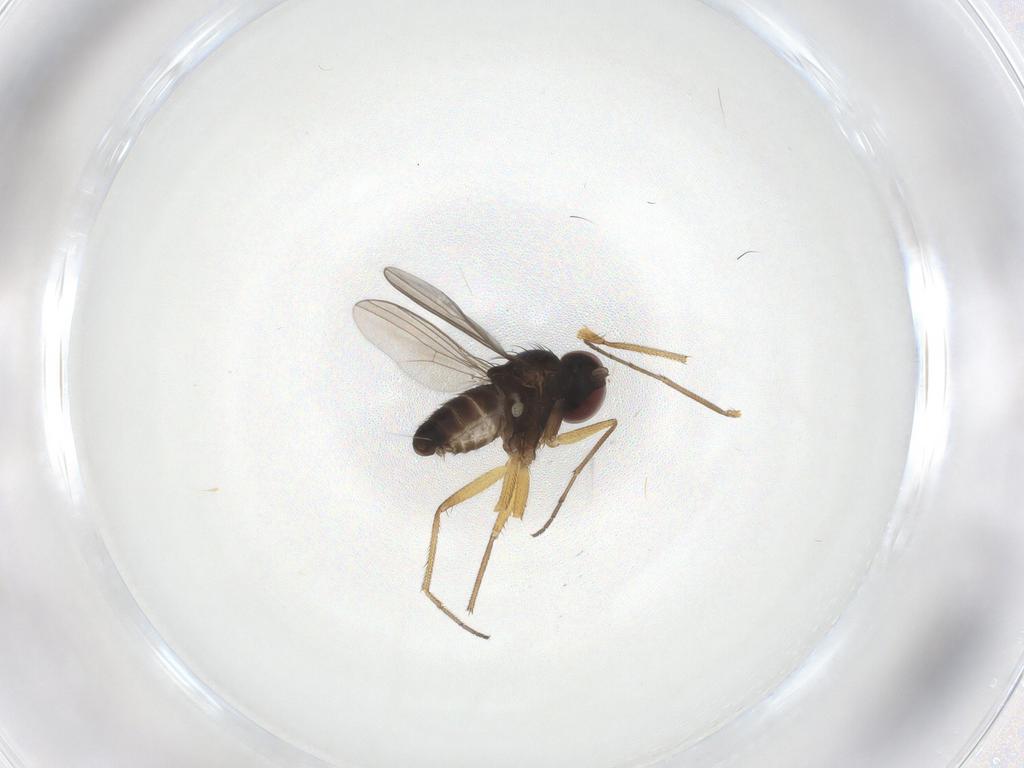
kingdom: Animalia
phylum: Arthropoda
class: Insecta
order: Diptera
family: Dolichopodidae
